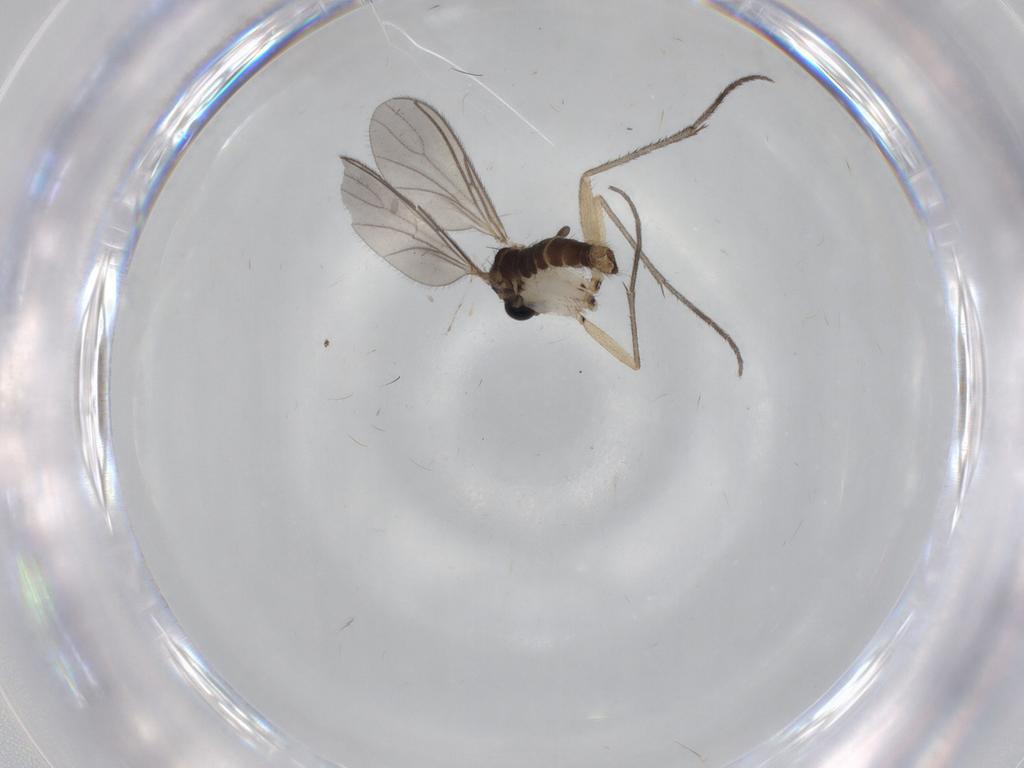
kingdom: Animalia
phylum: Arthropoda
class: Insecta
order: Diptera
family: Sciaridae
